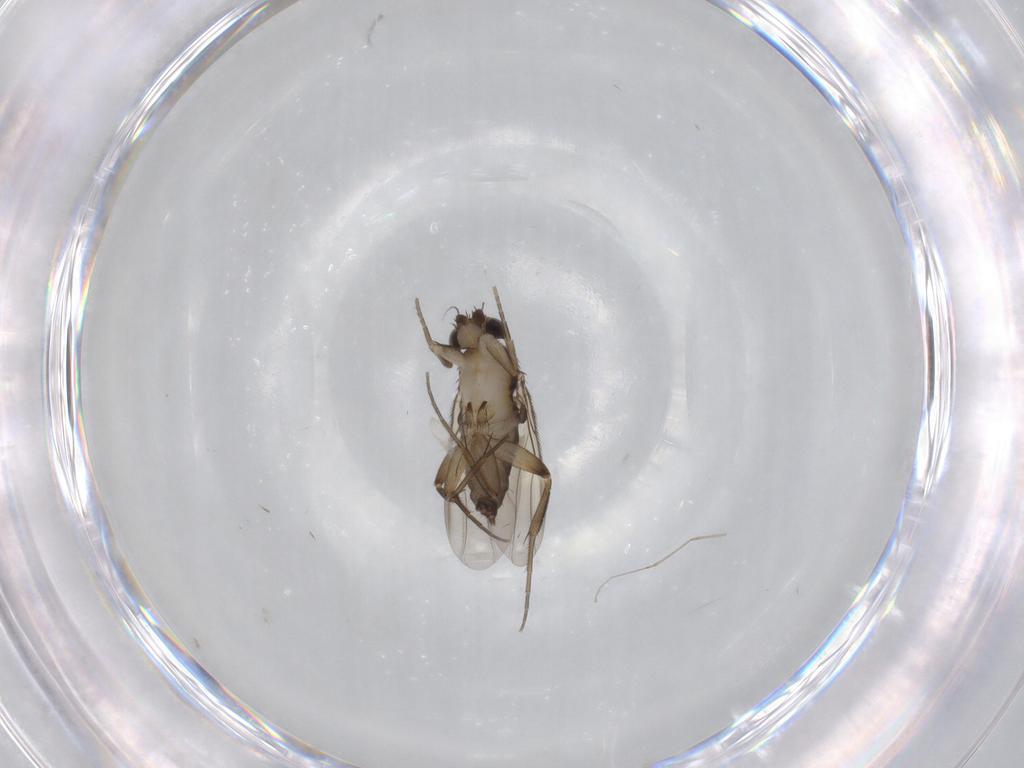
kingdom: Animalia
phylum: Arthropoda
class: Insecta
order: Diptera
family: Phoridae
